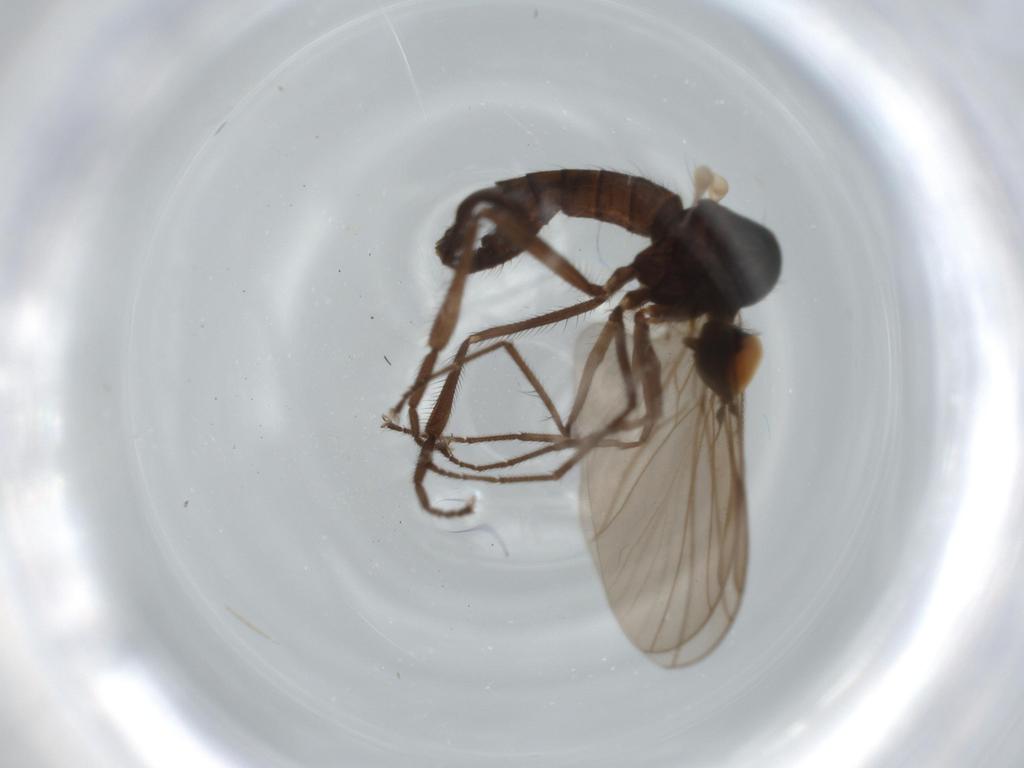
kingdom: Animalia
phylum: Arthropoda
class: Insecta
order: Diptera
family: Hybotidae
